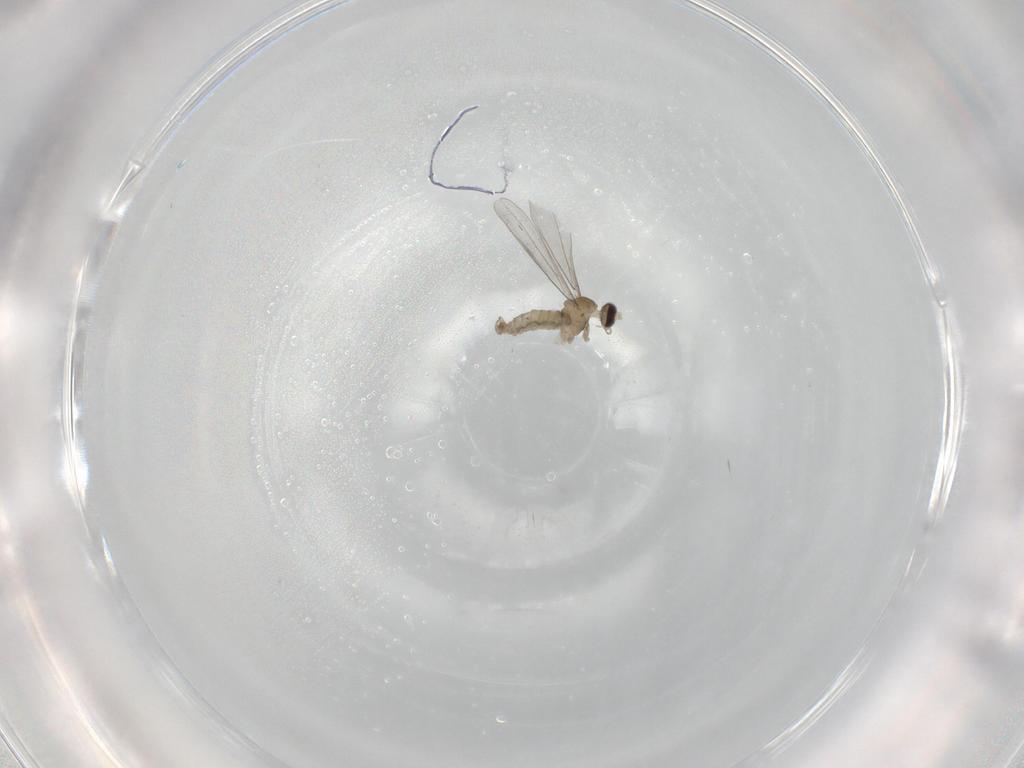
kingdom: Animalia
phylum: Arthropoda
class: Insecta
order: Diptera
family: Cecidomyiidae
